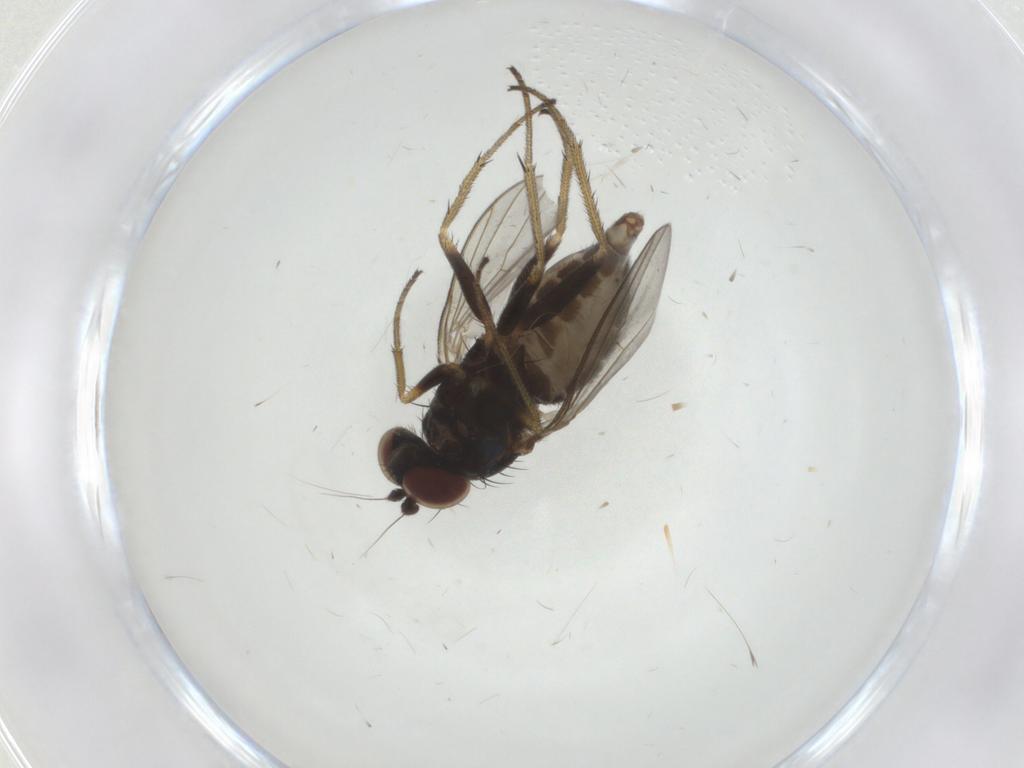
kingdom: Animalia
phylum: Arthropoda
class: Insecta
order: Diptera
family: Dolichopodidae
